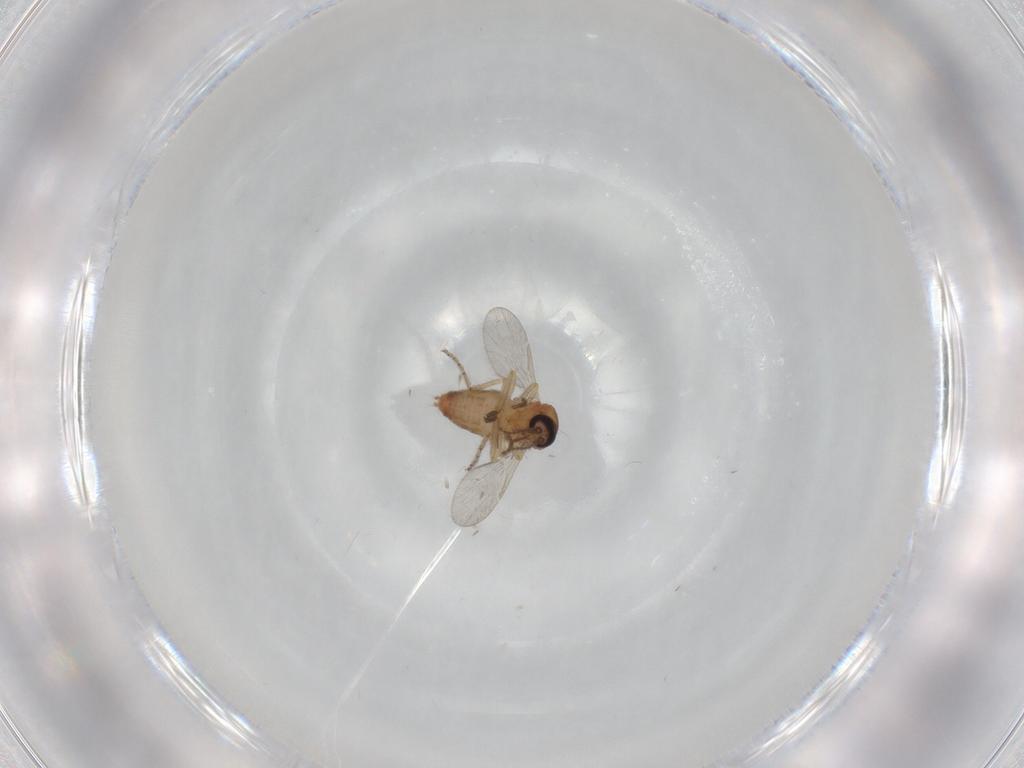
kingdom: Animalia
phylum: Arthropoda
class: Insecta
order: Diptera
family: Ceratopogonidae
